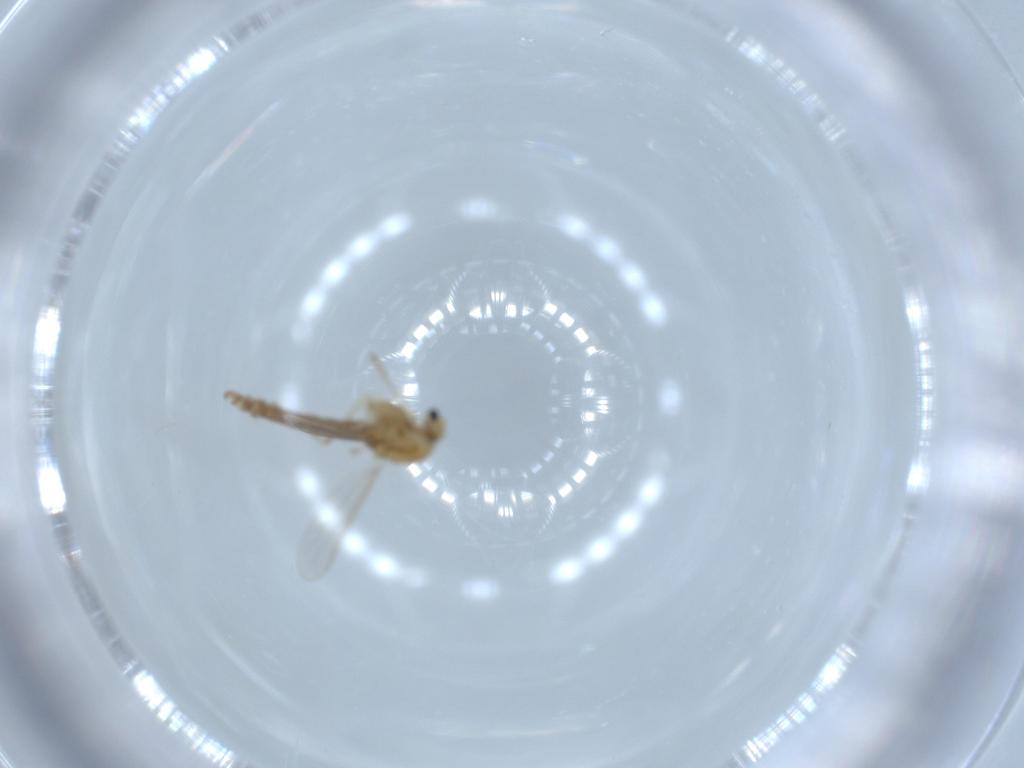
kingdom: Animalia
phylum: Arthropoda
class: Insecta
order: Diptera
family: Chironomidae
